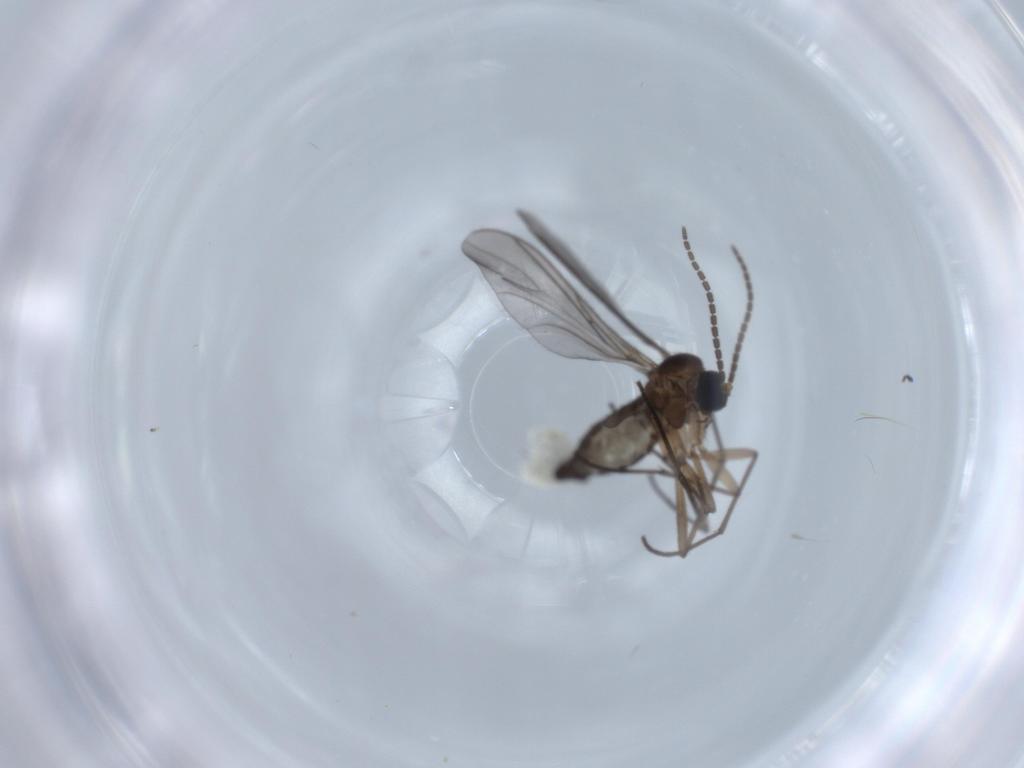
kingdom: Animalia
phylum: Arthropoda
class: Insecta
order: Diptera
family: Sciaridae
